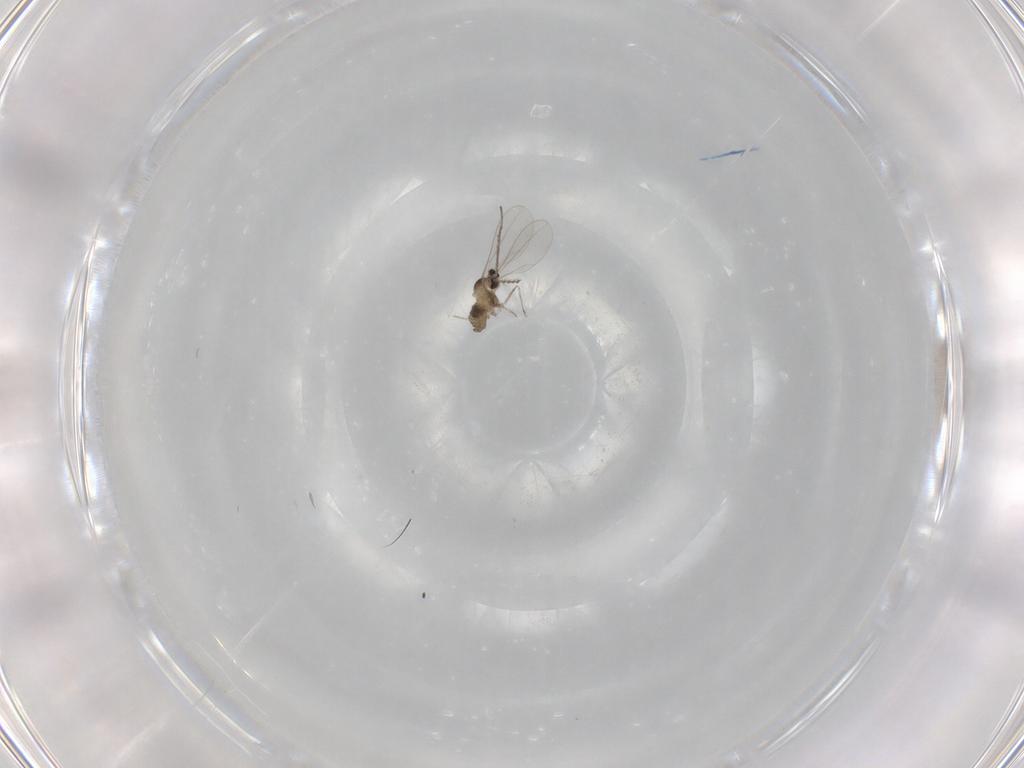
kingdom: Animalia
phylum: Arthropoda
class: Insecta
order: Diptera
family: Cecidomyiidae
